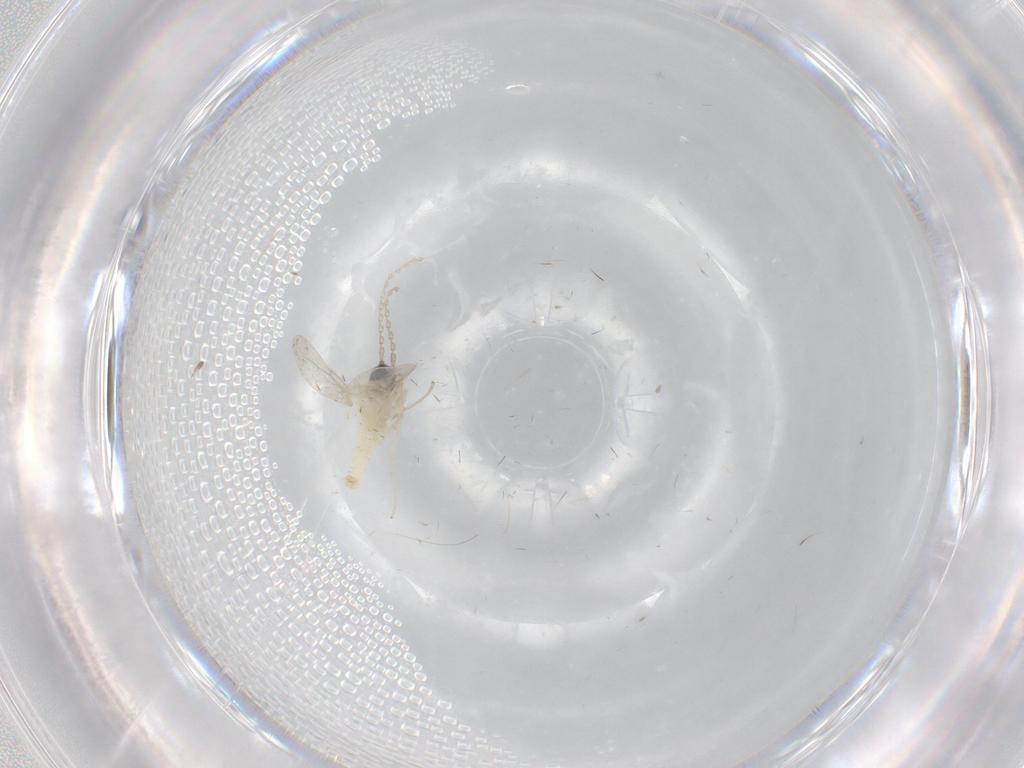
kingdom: Animalia
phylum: Arthropoda
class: Insecta
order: Diptera
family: Cecidomyiidae
